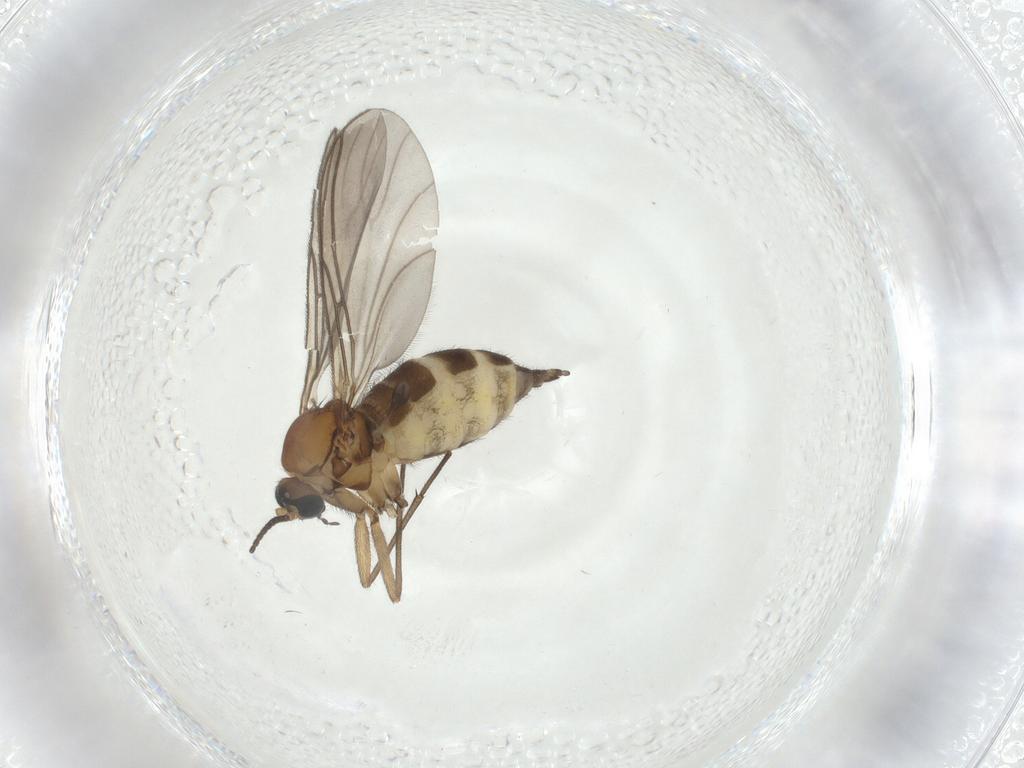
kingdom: Animalia
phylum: Arthropoda
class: Insecta
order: Diptera
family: Sciaridae
